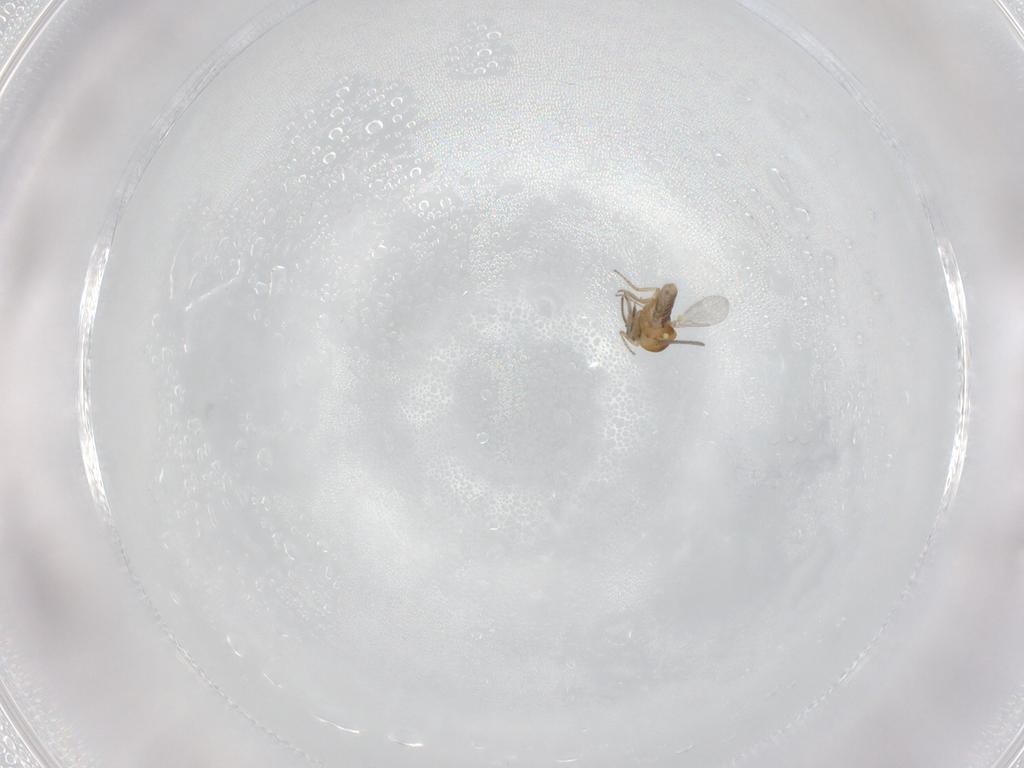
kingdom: Animalia
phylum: Arthropoda
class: Insecta
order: Diptera
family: Ceratopogonidae
